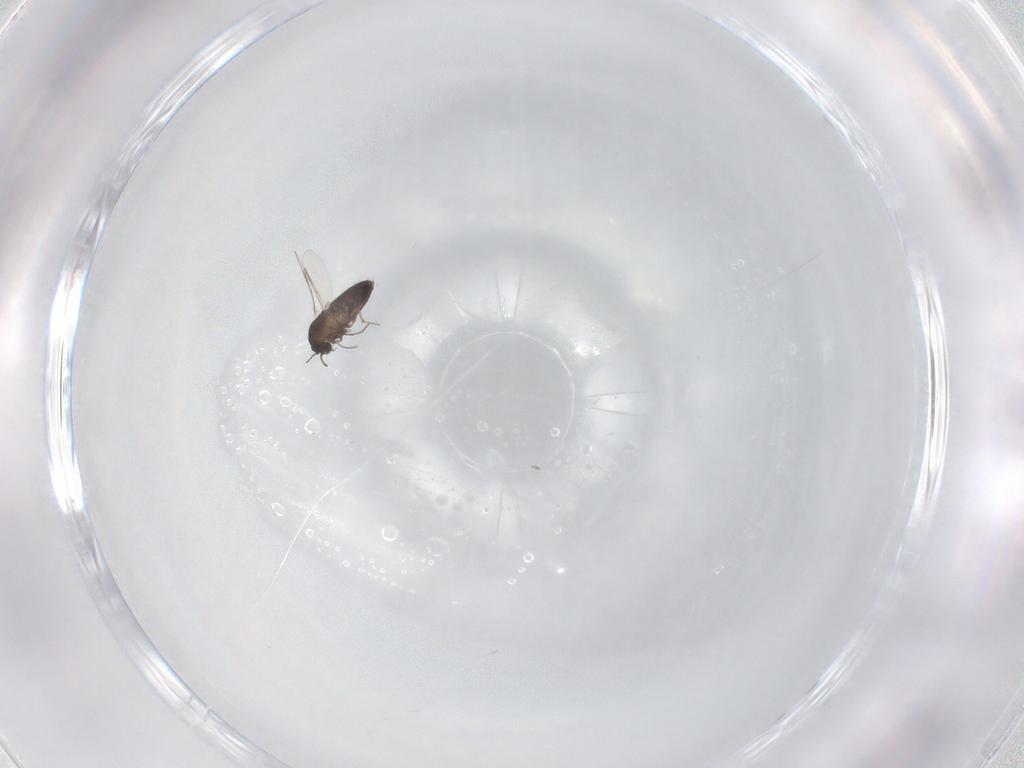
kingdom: Animalia
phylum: Arthropoda
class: Insecta
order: Diptera
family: Chironomidae
